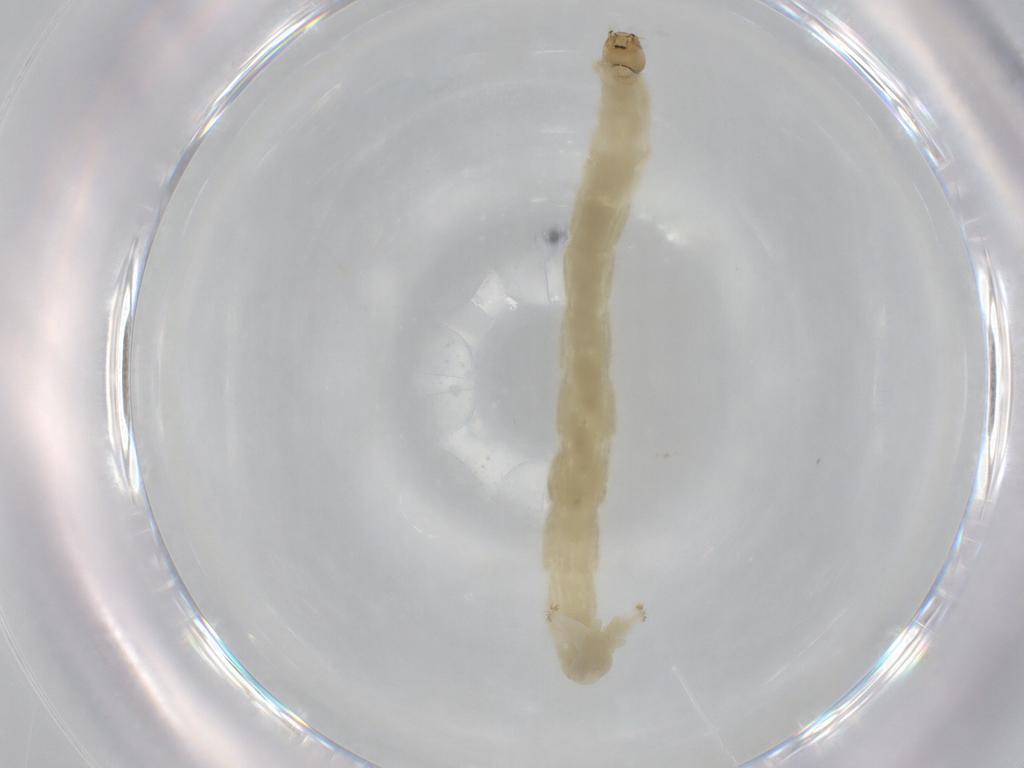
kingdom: Animalia
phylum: Arthropoda
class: Insecta
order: Diptera
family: Chironomidae
